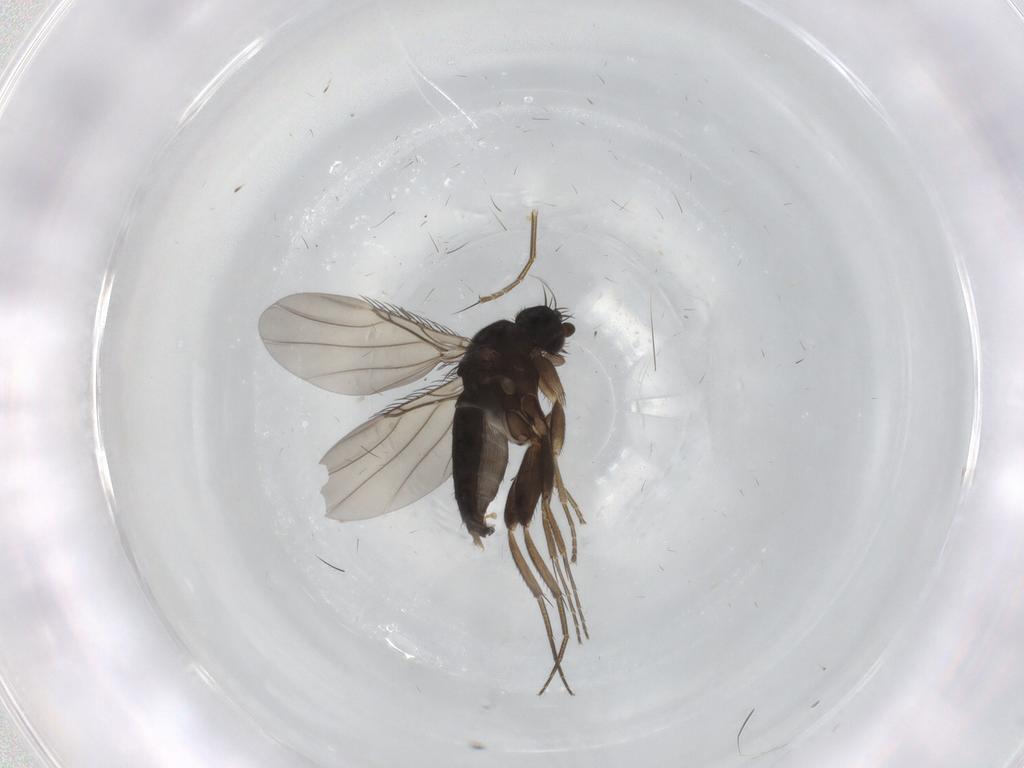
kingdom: Animalia
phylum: Arthropoda
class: Insecta
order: Diptera
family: Phoridae
